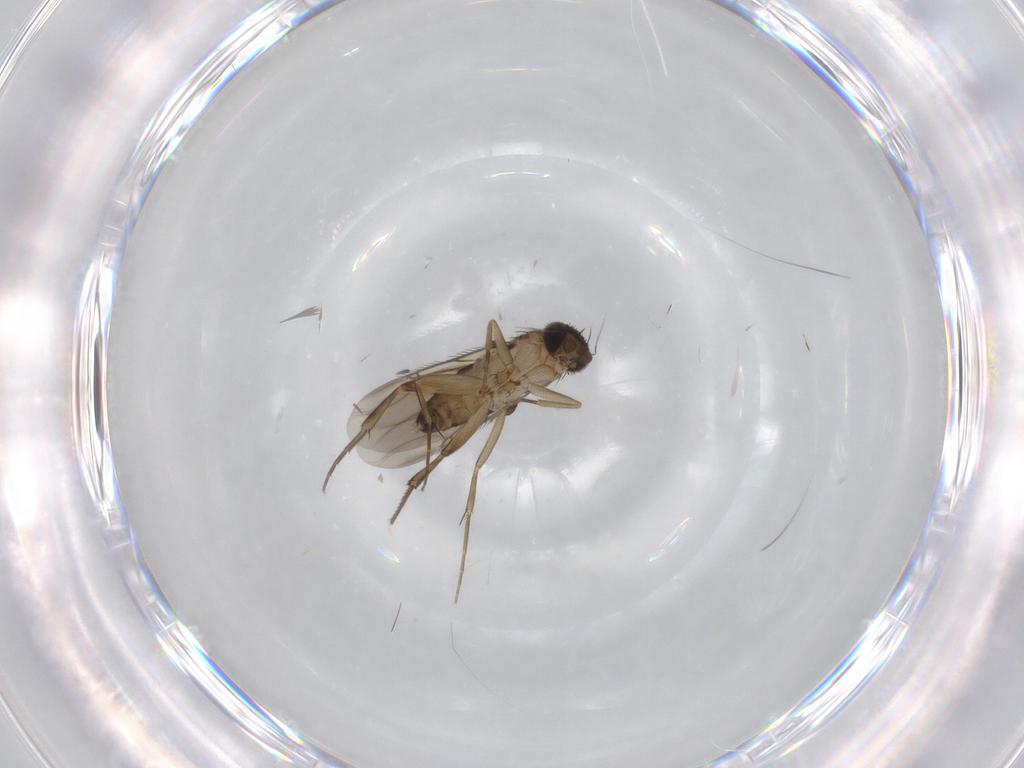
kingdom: Animalia
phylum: Arthropoda
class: Insecta
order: Diptera
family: Phoridae
